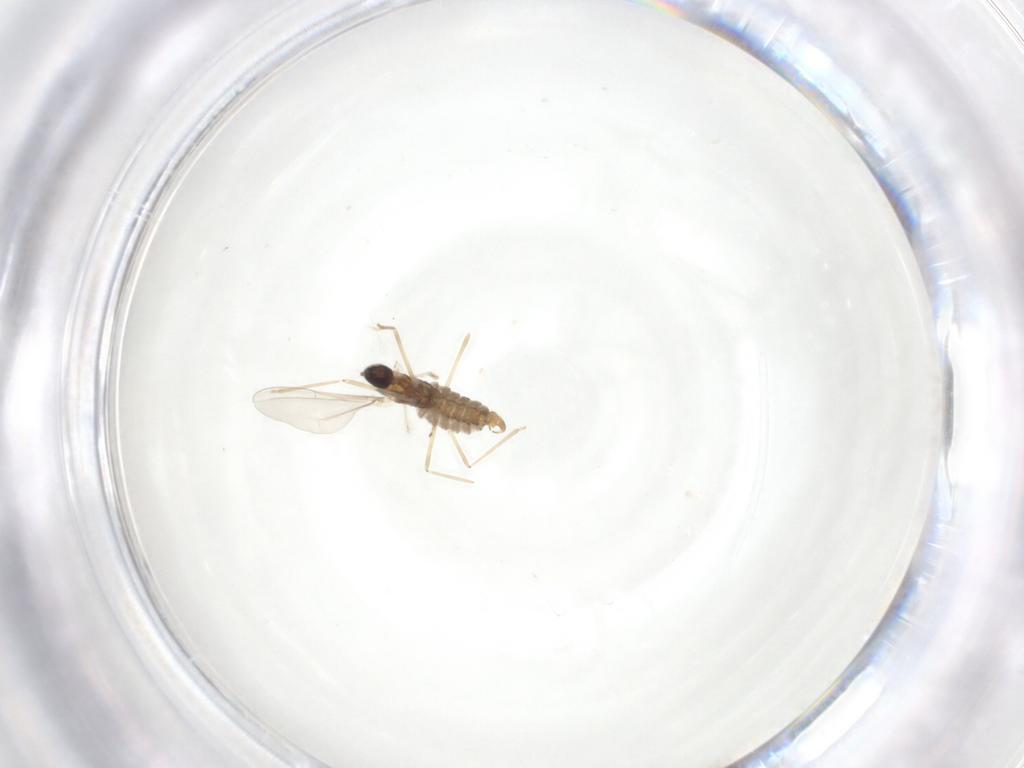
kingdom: Animalia
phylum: Arthropoda
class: Insecta
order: Diptera
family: Cecidomyiidae
